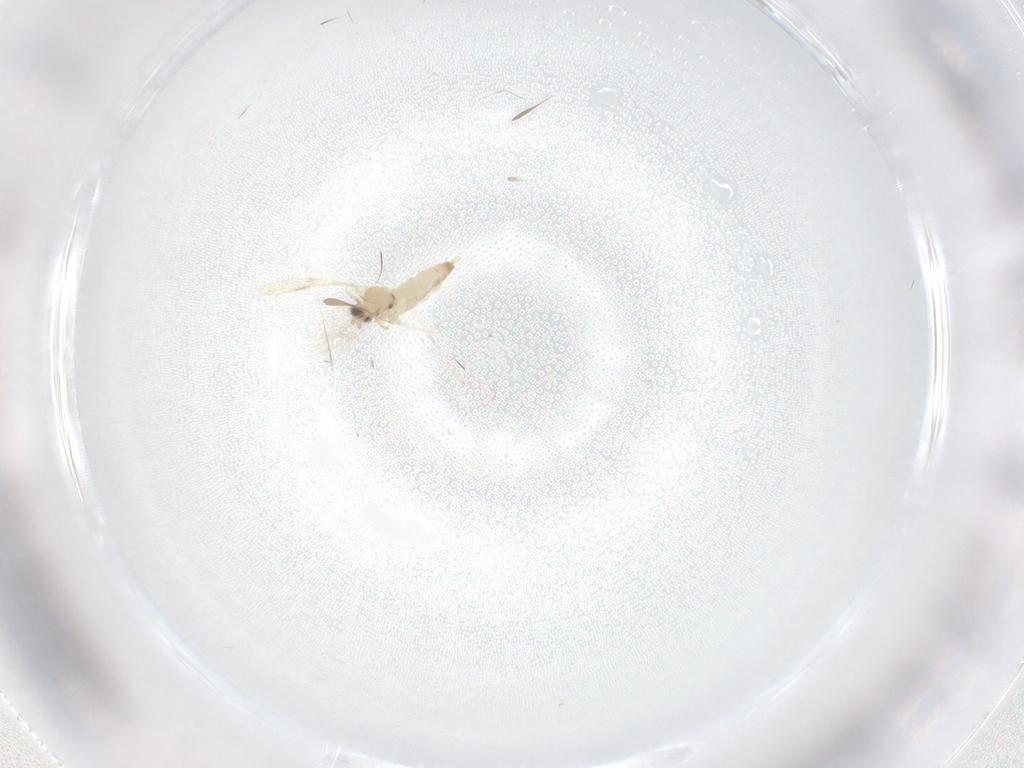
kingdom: Animalia
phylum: Arthropoda
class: Insecta
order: Diptera
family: Cecidomyiidae
